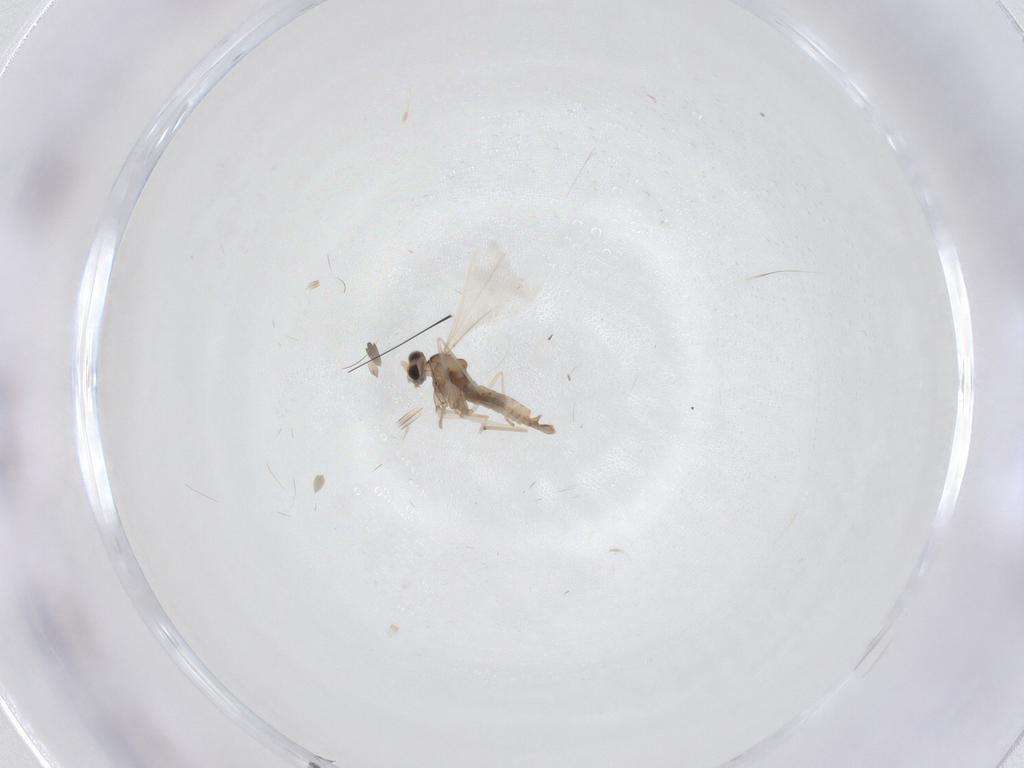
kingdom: Animalia
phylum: Arthropoda
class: Insecta
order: Diptera
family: Cecidomyiidae
